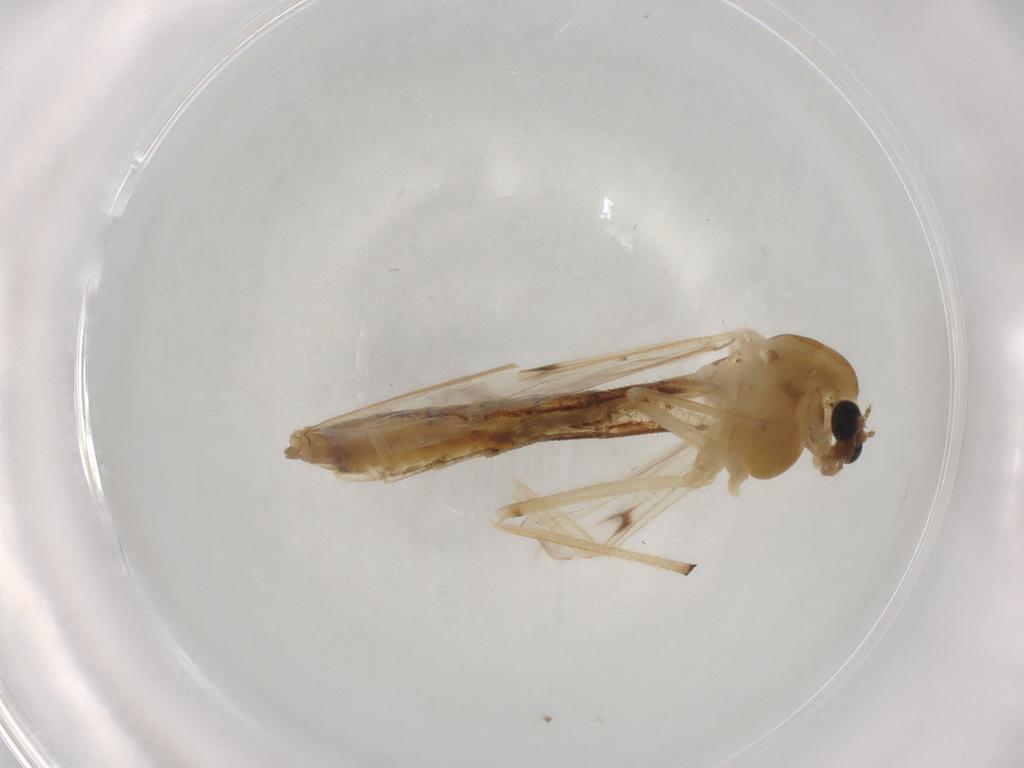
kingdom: Animalia
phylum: Arthropoda
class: Insecta
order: Diptera
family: Chironomidae
